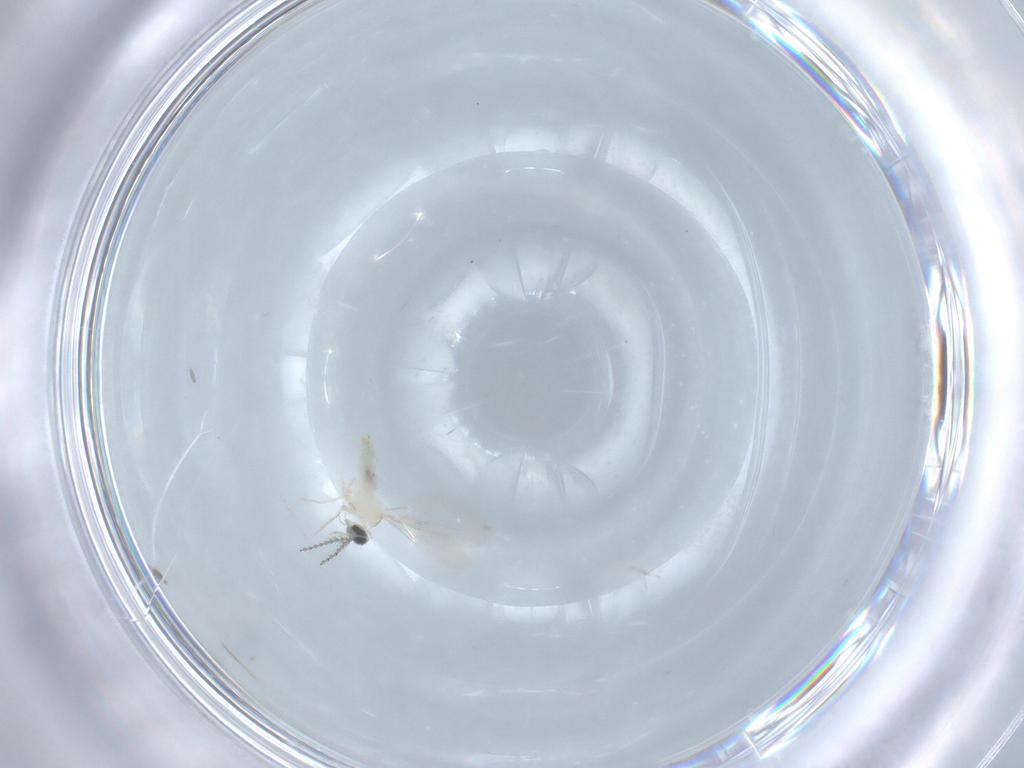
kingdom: Animalia
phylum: Arthropoda
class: Insecta
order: Diptera
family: Cecidomyiidae
